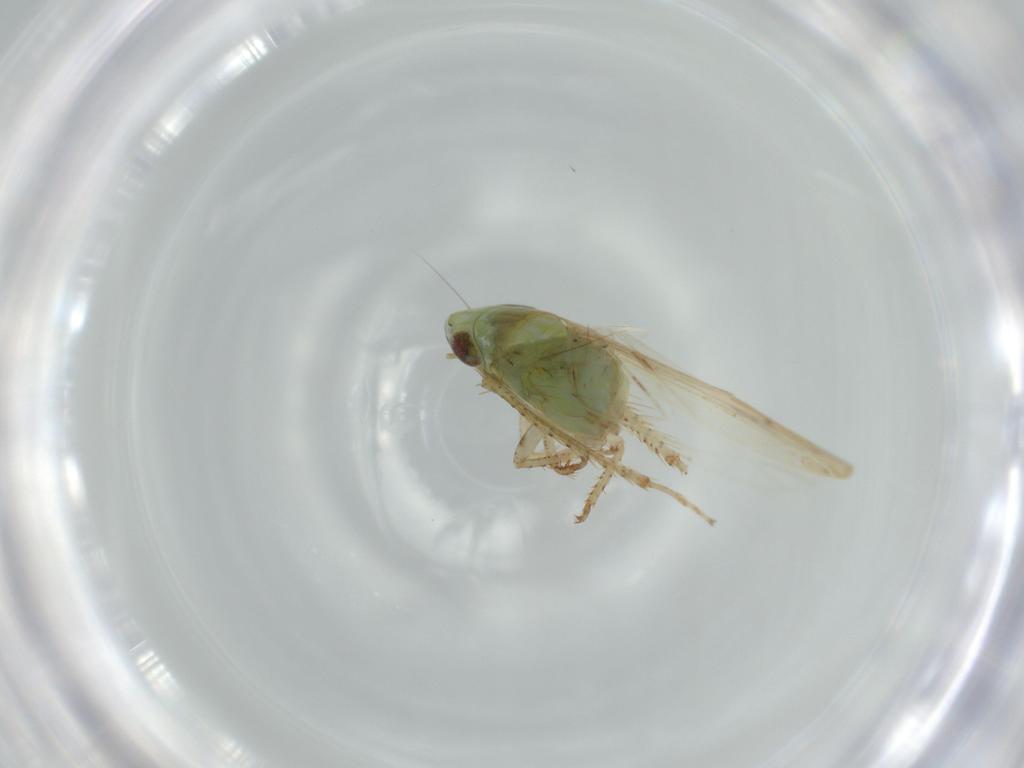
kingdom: Animalia
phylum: Arthropoda
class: Insecta
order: Hemiptera
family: Cicadellidae
